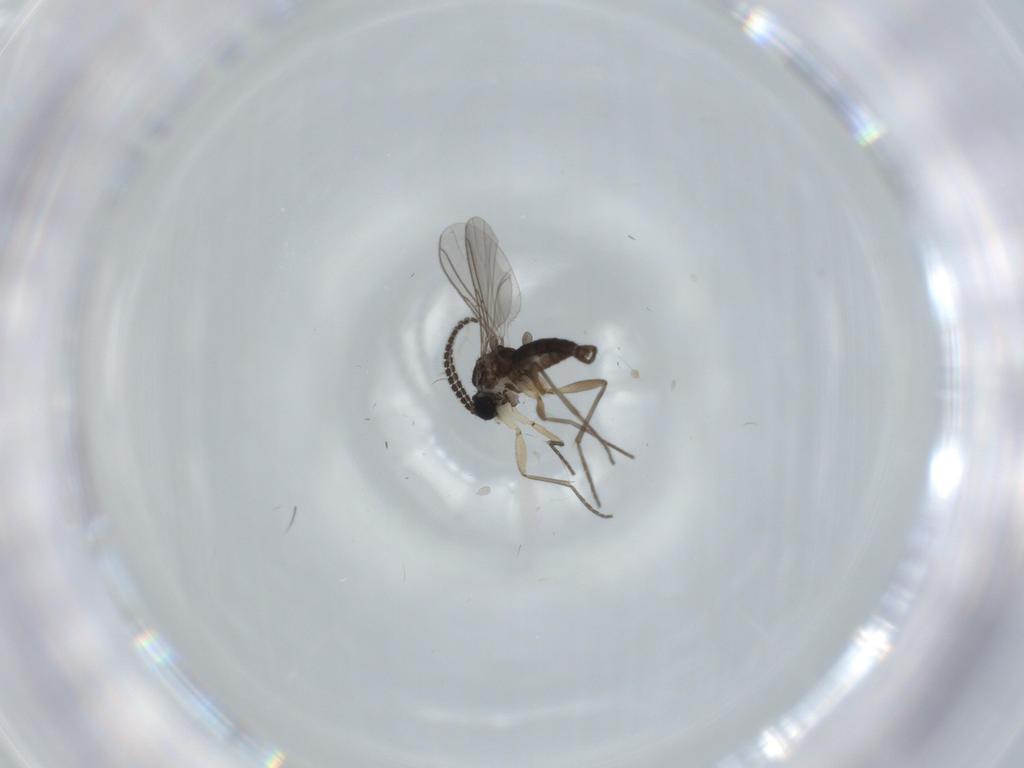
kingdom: Animalia
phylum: Arthropoda
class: Insecta
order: Diptera
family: Sciaridae
